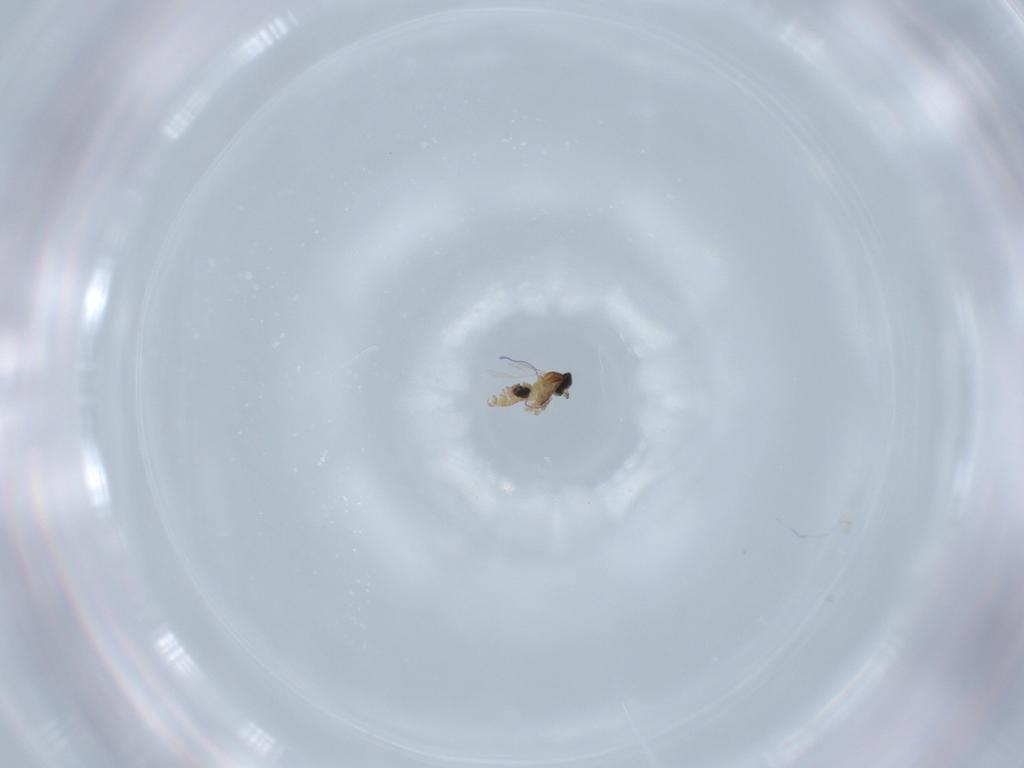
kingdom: Animalia
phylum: Arthropoda
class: Insecta
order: Diptera
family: Cecidomyiidae
